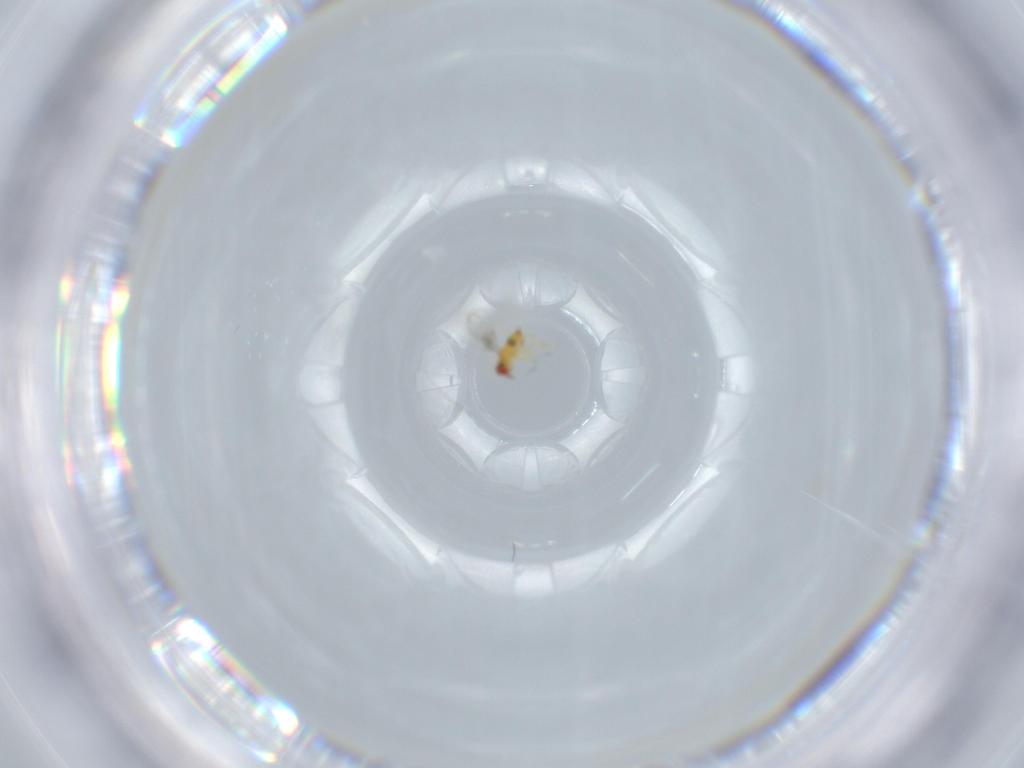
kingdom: Animalia
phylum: Arthropoda
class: Insecta
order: Hymenoptera
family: Trichogrammatidae
